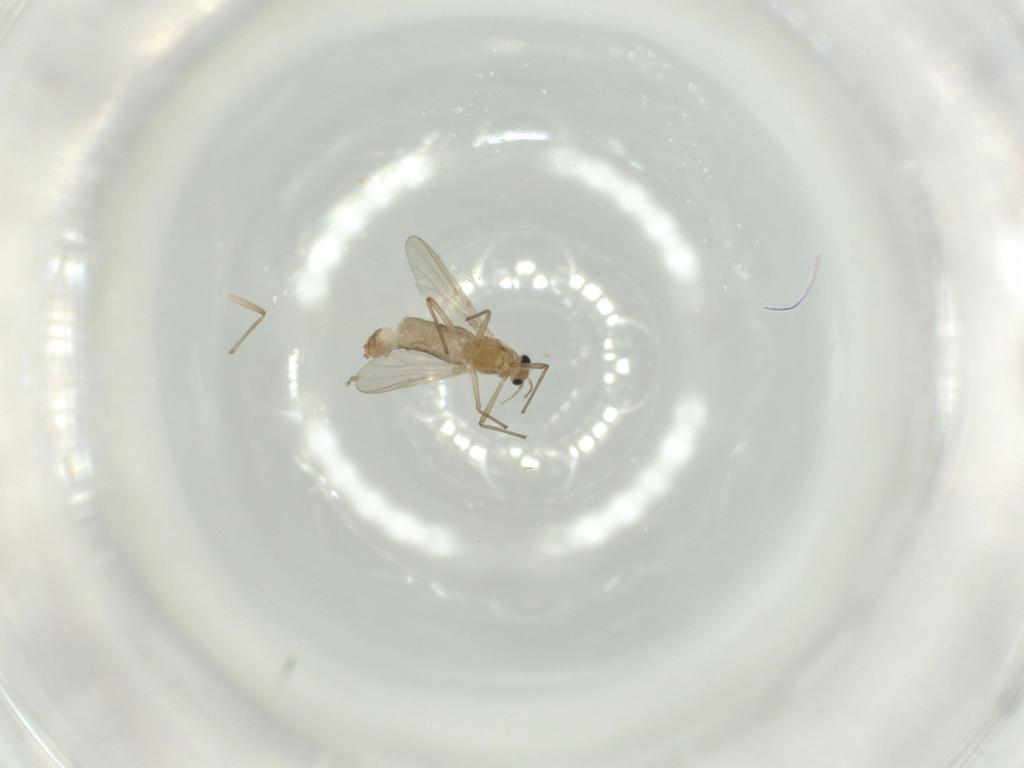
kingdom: Animalia
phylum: Arthropoda
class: Insecta
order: Diptera
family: Chironomidae
